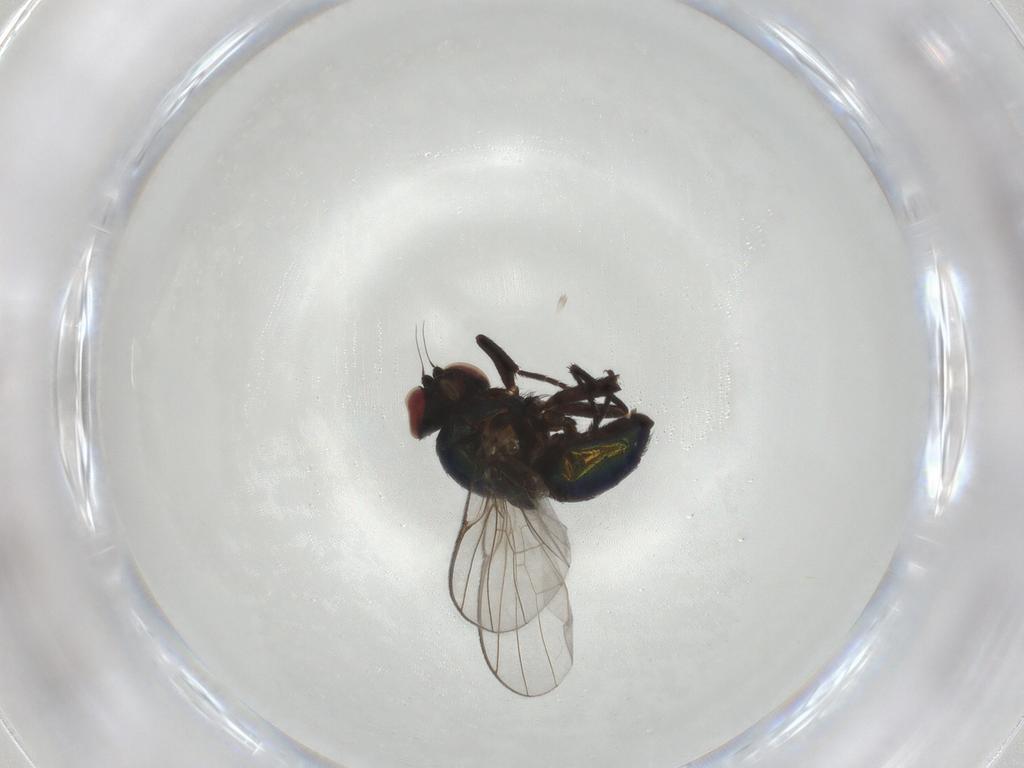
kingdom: Animalia
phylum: Arthropoda
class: Insecta
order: Diptera
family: Agromyzidae
